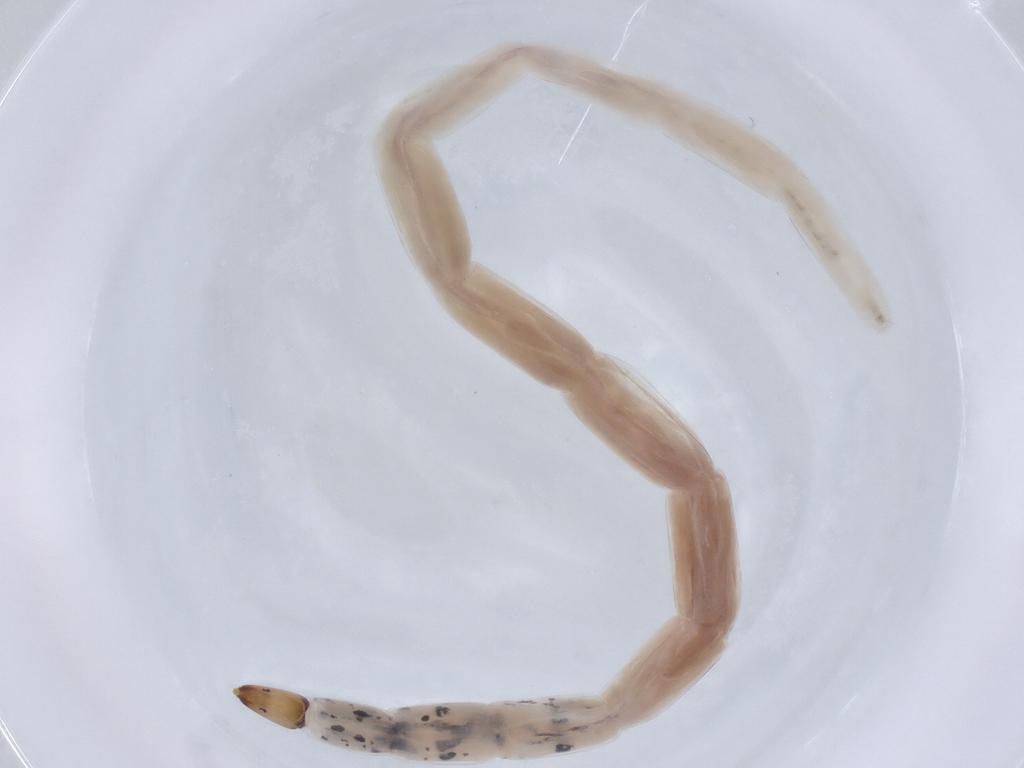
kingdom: Animalia
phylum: Arthropoda
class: Insecta
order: Diptera
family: Ceratopogonidae
